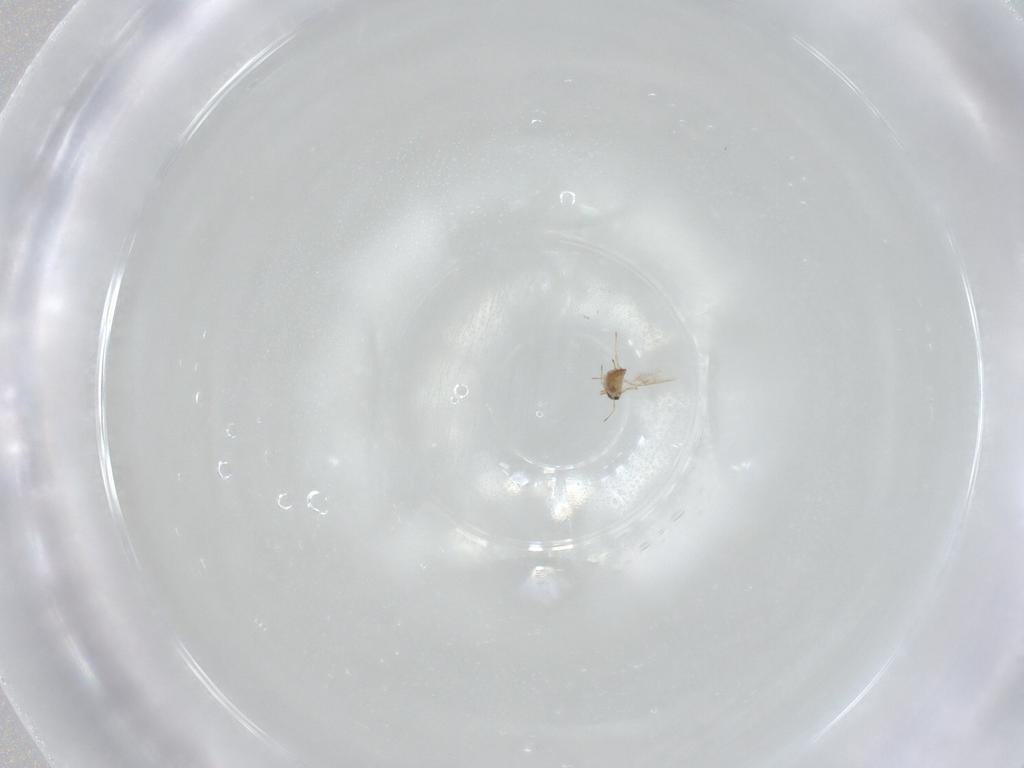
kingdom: Animalia
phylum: Arthropoda
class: Insecta
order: Hymenoptera
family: Trichogrammatidae
